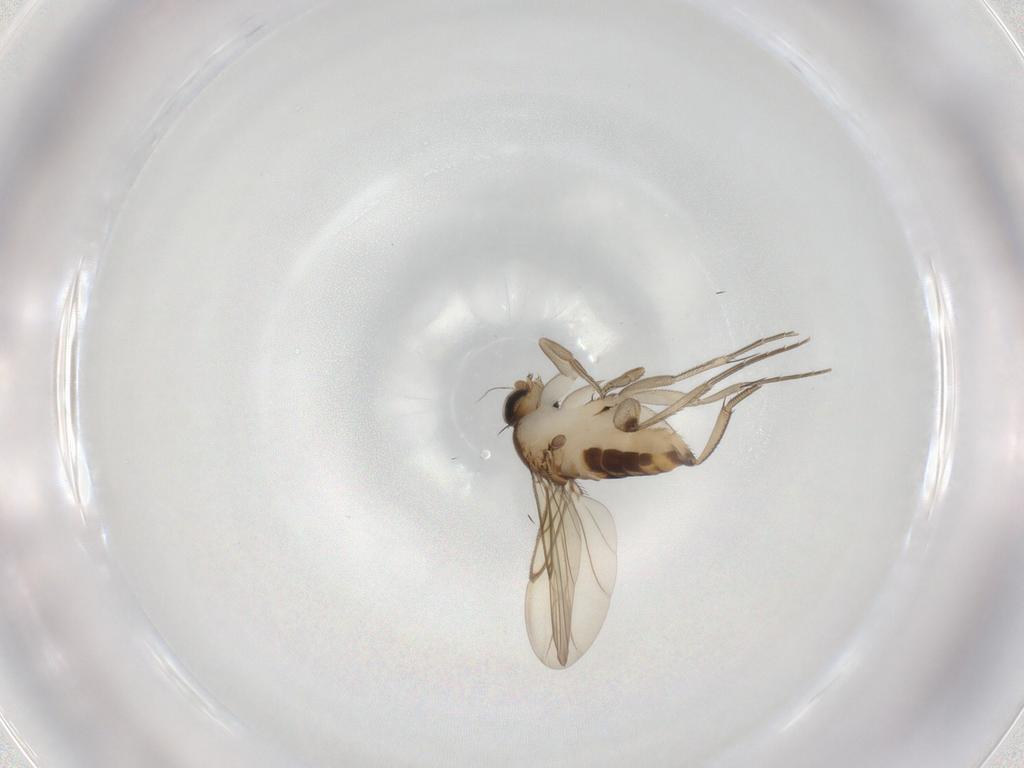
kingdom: Animalia
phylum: Arthropoda
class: Insecta
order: Diptera
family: Phoridae
